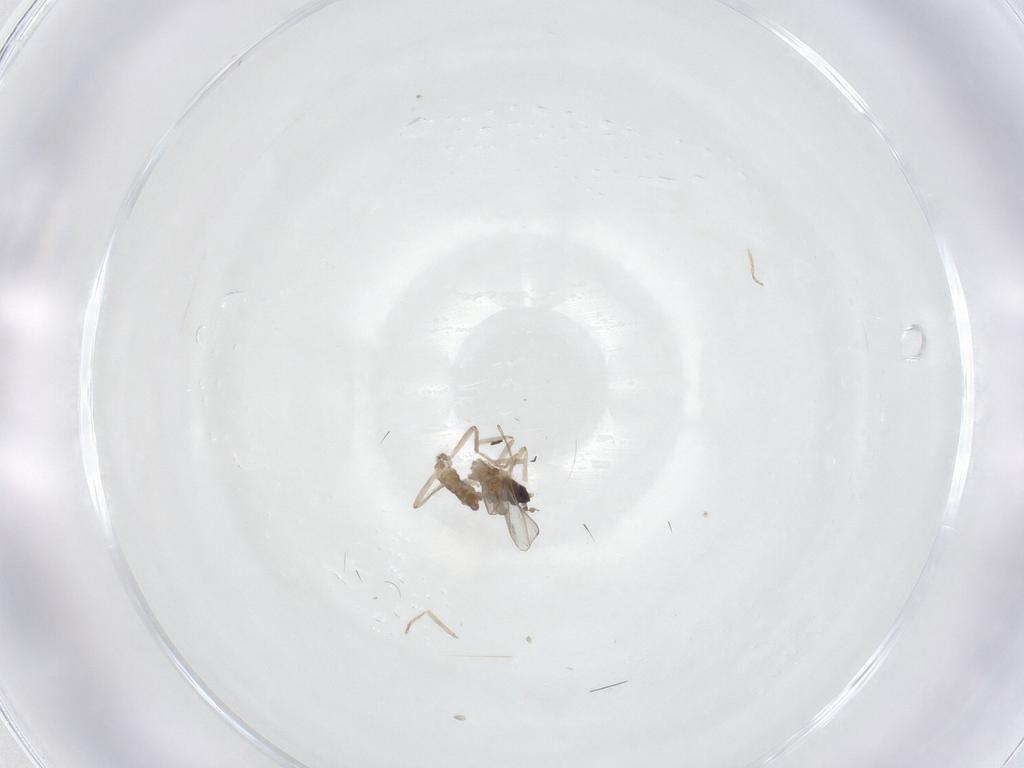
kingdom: Animalia
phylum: Arthropoda
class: Insecta
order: Diptera
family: Cecidomyiidae
